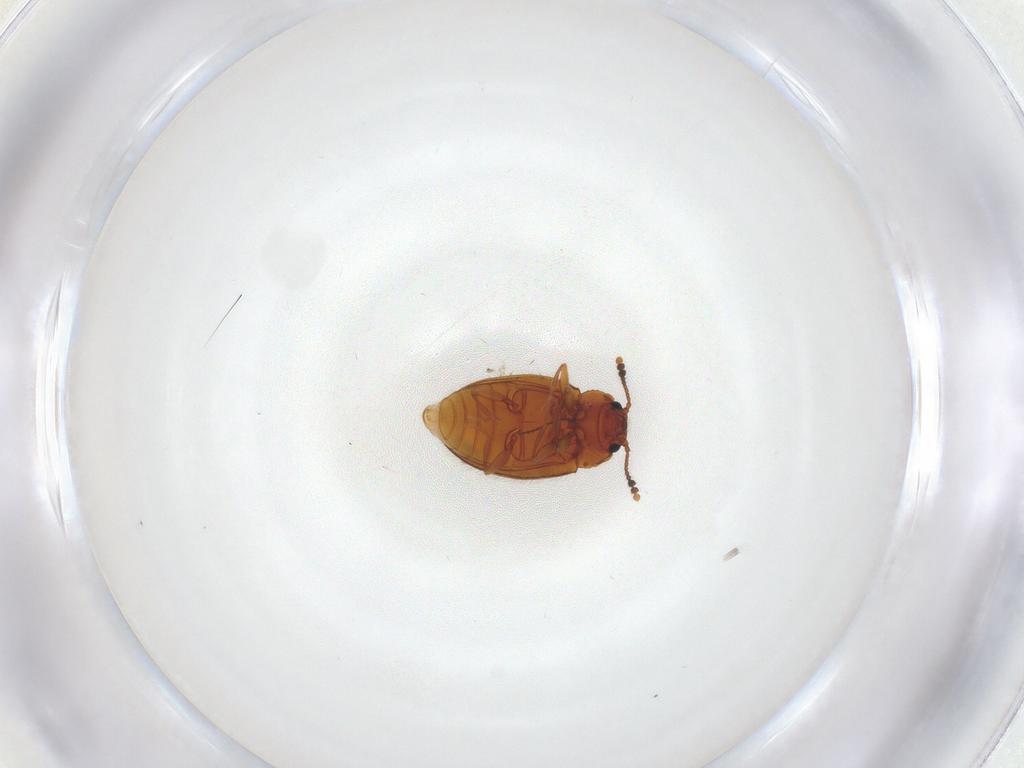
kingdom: Animalia
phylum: Arthropoda
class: Insecta
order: Coleoptera
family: Erotylidae
